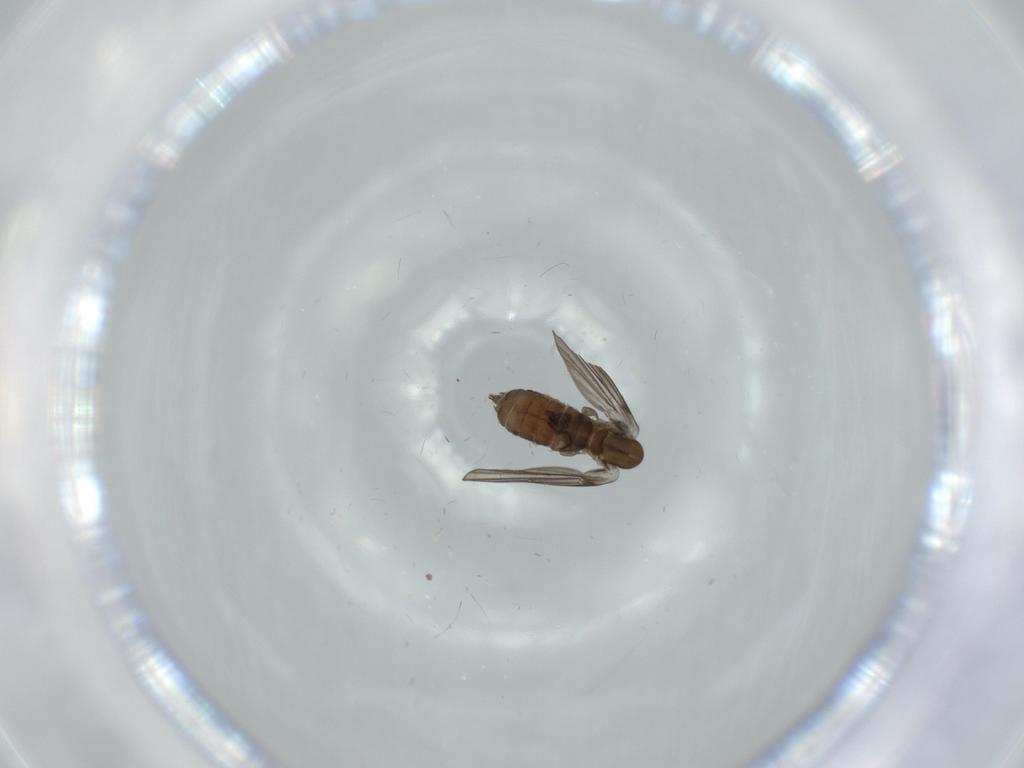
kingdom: Animalia
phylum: Arthropoda
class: Insecta
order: Diptera
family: Psychodidae
